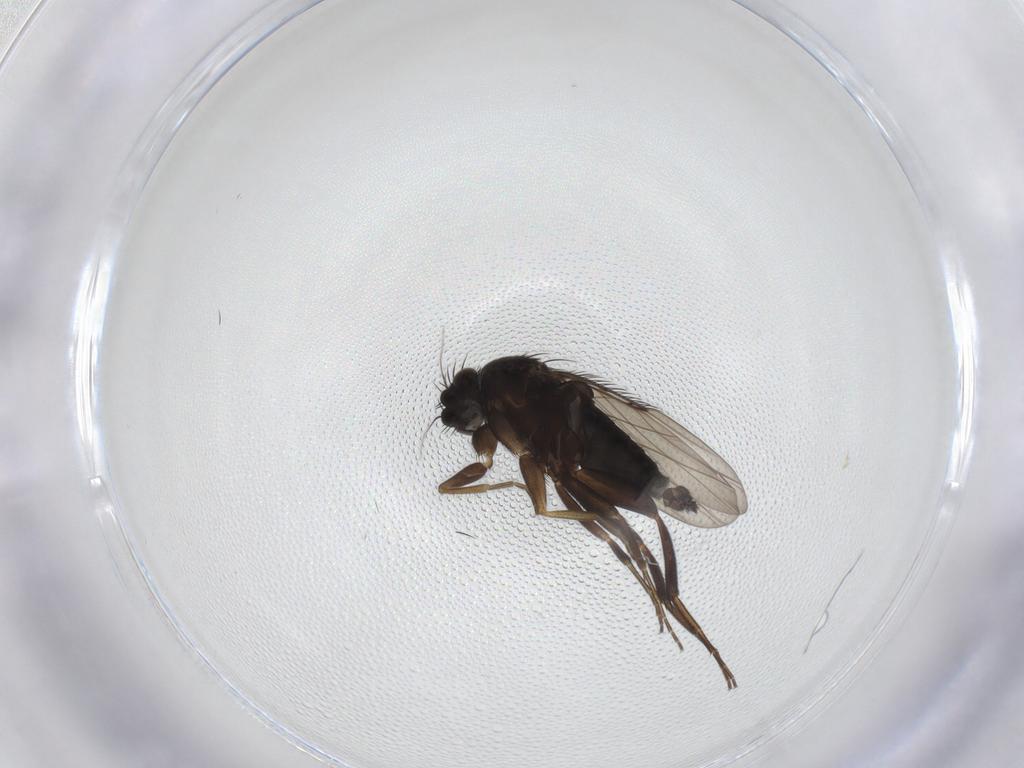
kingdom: Animalia
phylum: Arthropoda
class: Insecta
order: Diptera
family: Phoridae
